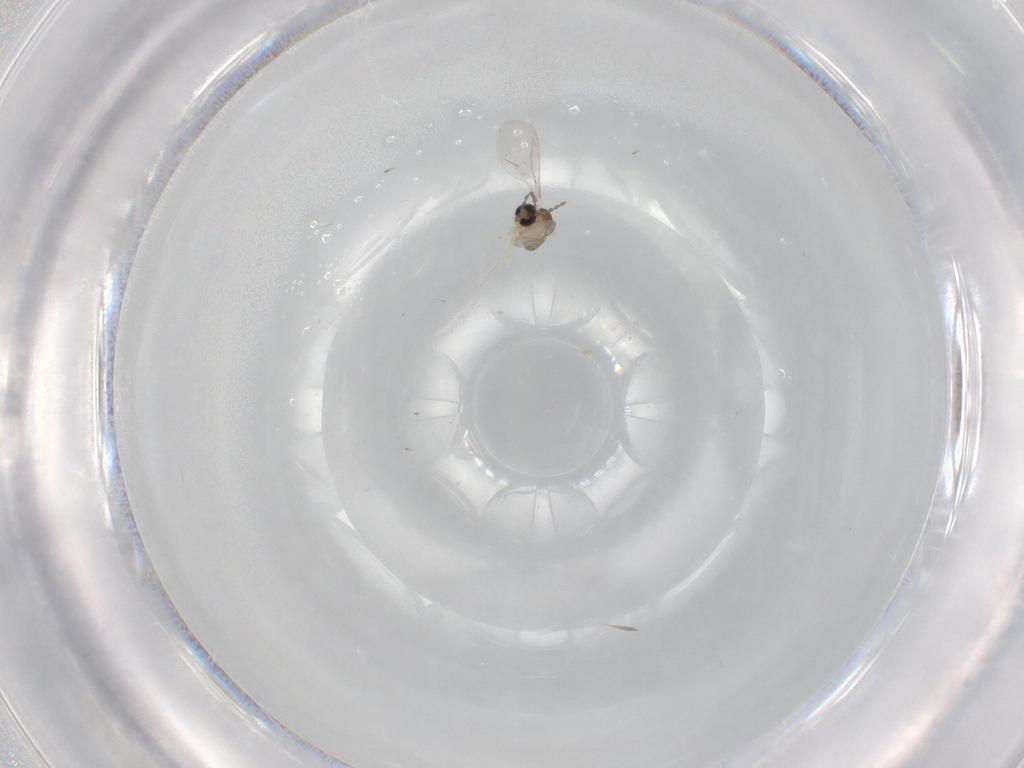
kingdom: Animalia
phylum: Arthropoda
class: Insecta
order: Diptera
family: Cecidomyiidae
